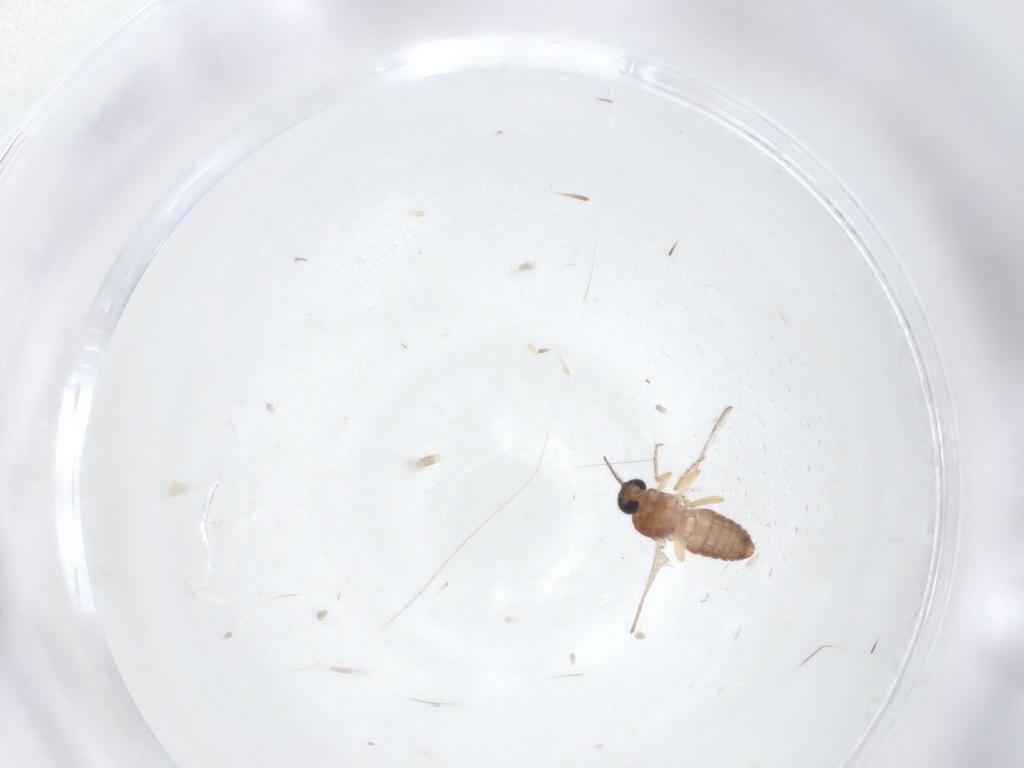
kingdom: Animalia
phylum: Arthropoda
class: Insecta
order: Diptera
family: Ceratopogonidae
